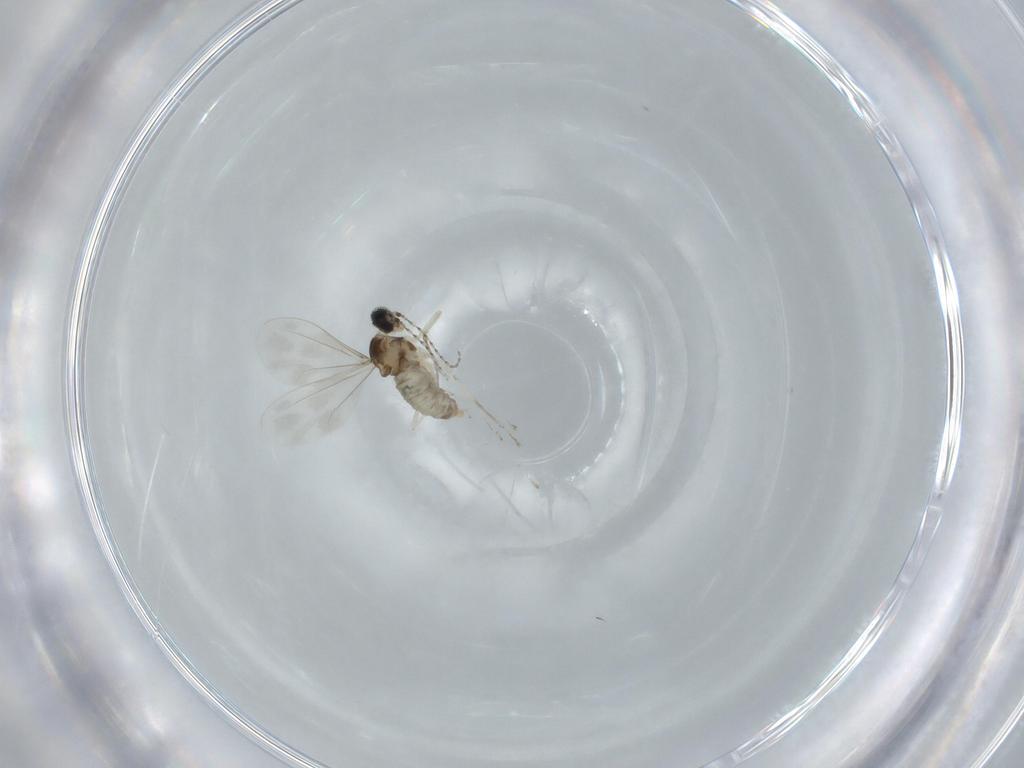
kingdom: Animalia
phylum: Arthropoda
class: Insecta
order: Diptera
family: Cecidomyiidae
